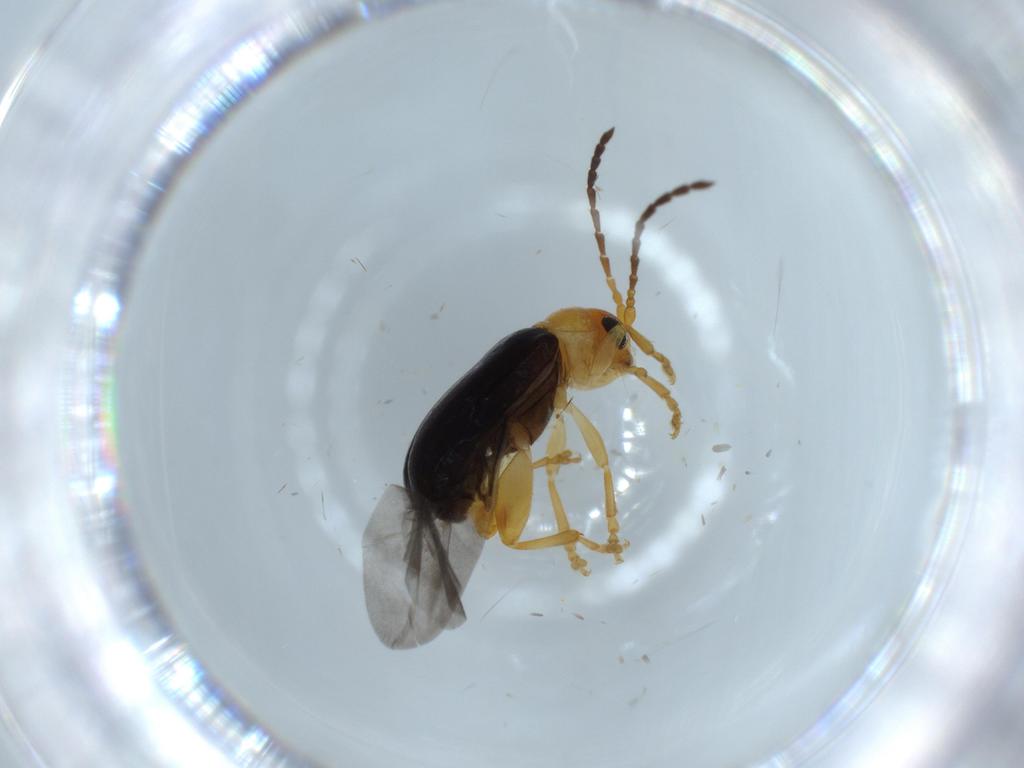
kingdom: Animalia
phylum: Arthropoda
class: Insecta
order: Coleoptera
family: Chrysomelidae
